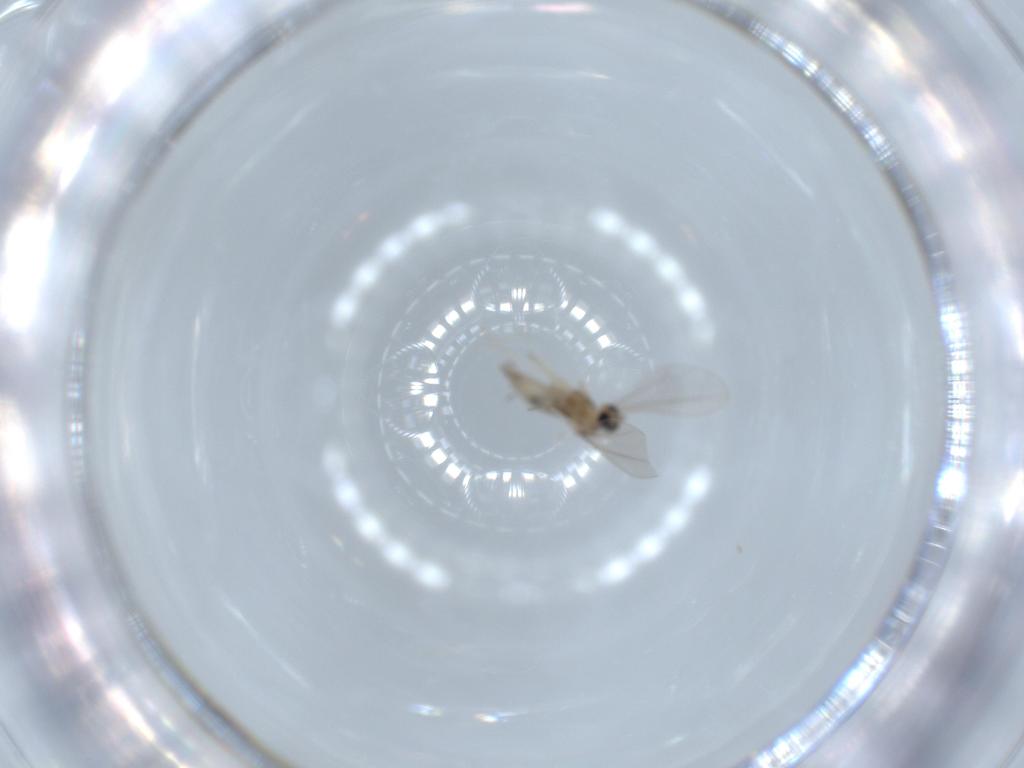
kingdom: Animalia
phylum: Arthropoda
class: Insecta
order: Diptera
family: Cecidomyiidae
